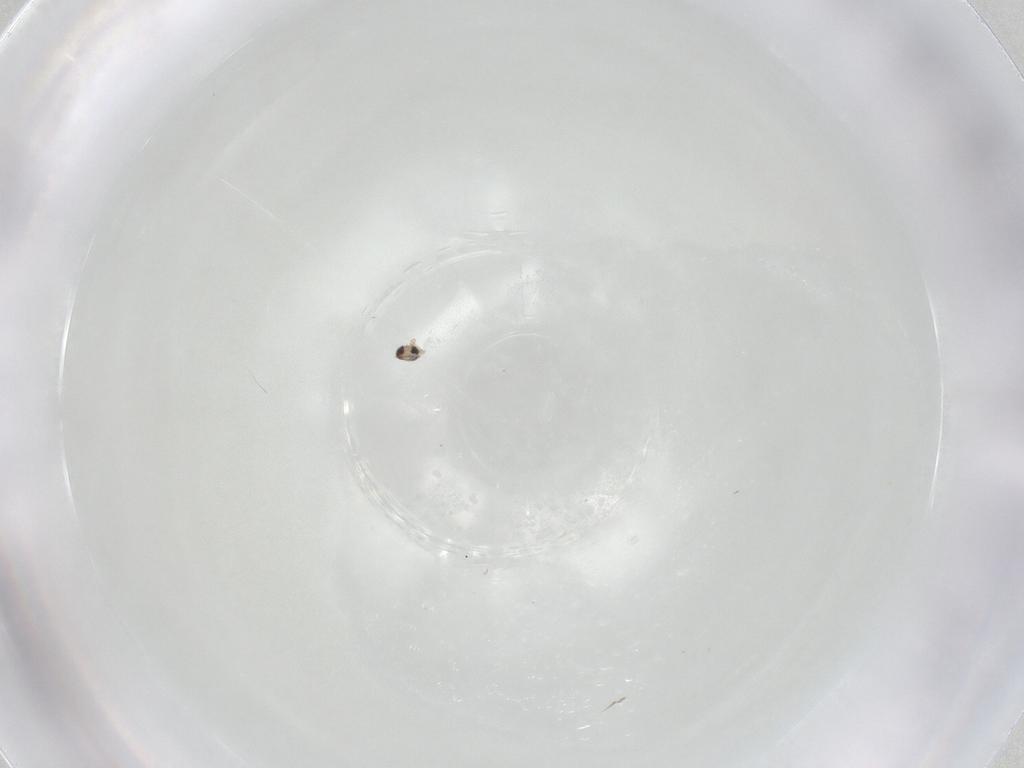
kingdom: Animalia
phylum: Arthropoda
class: Insecta
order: Diptera
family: Cecidomyiidae
